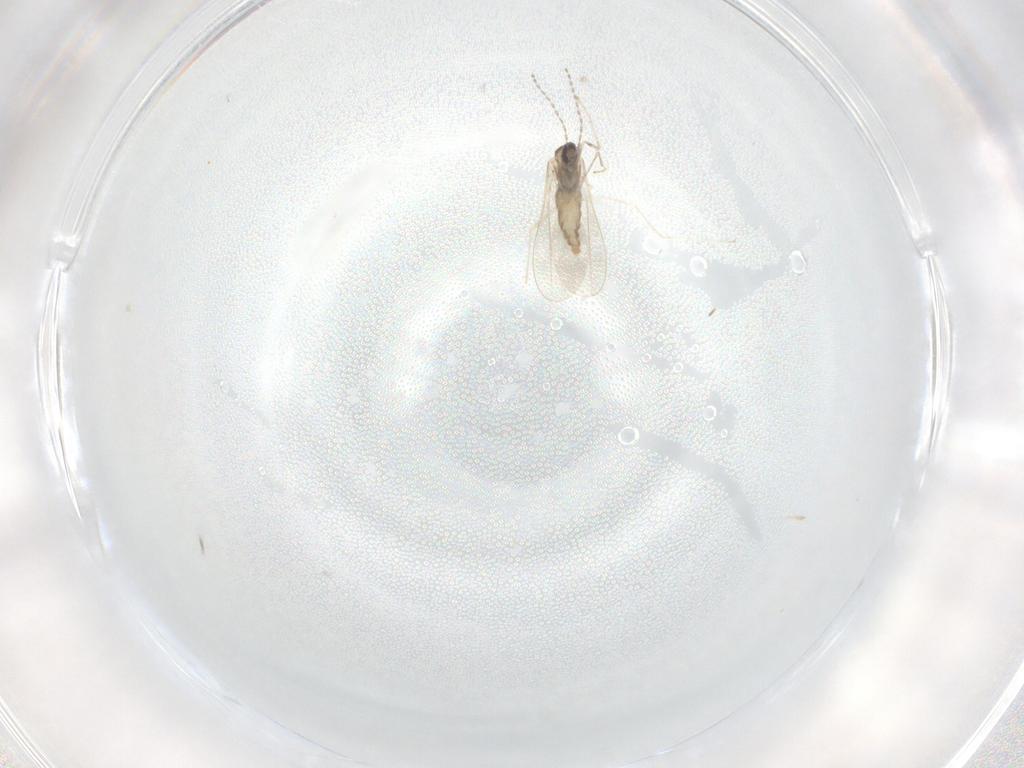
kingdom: Animalia
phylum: Arthropoda
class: Insecta
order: Diptera
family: Cecidomyiidae
